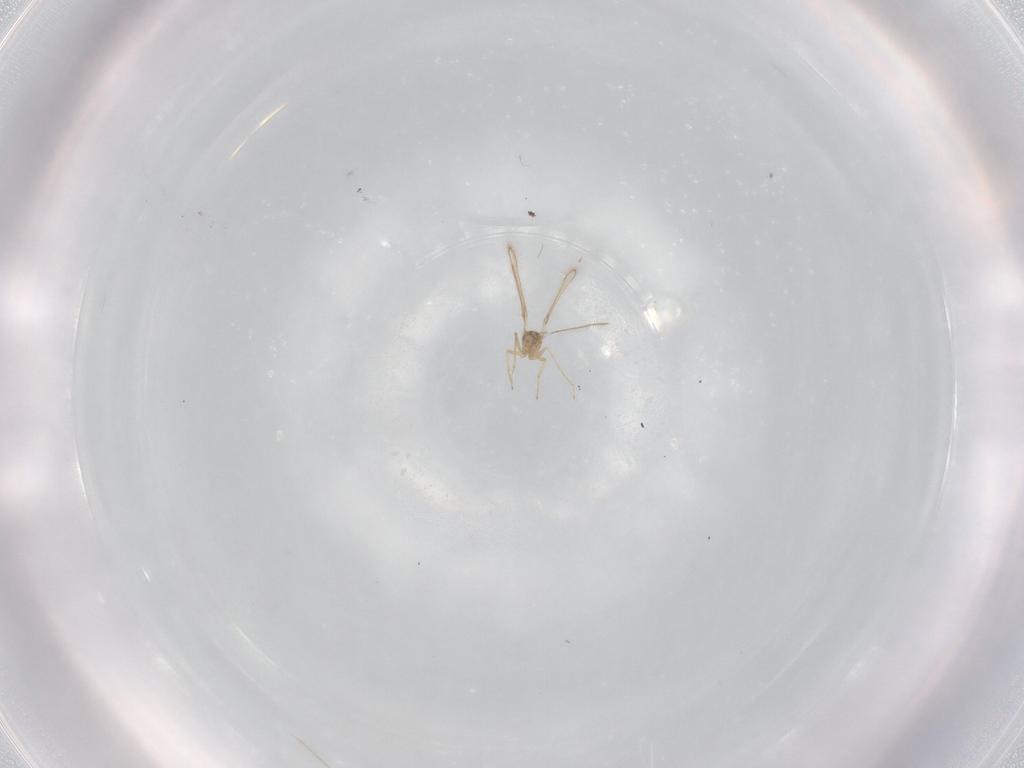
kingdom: Animalia
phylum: Arthropoda
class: Insecta
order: Hymenoptera
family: Mymaridae
